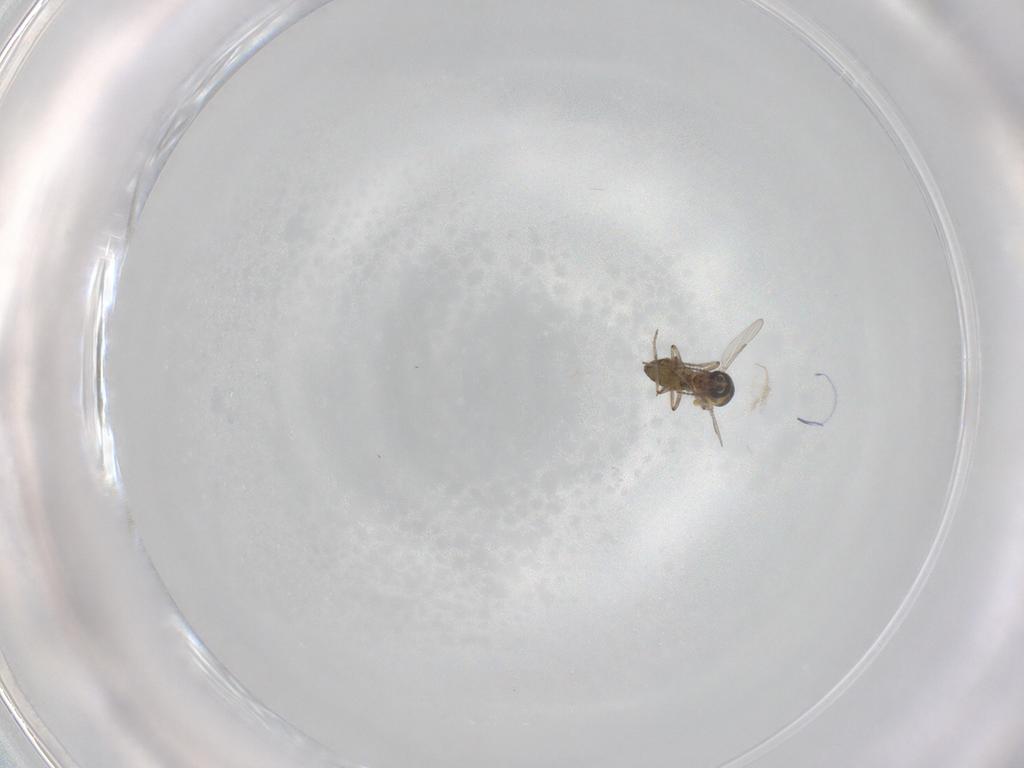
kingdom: Animalia
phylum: Arthropoda
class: Insecta
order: Diptera
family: Ceratopogonidae
